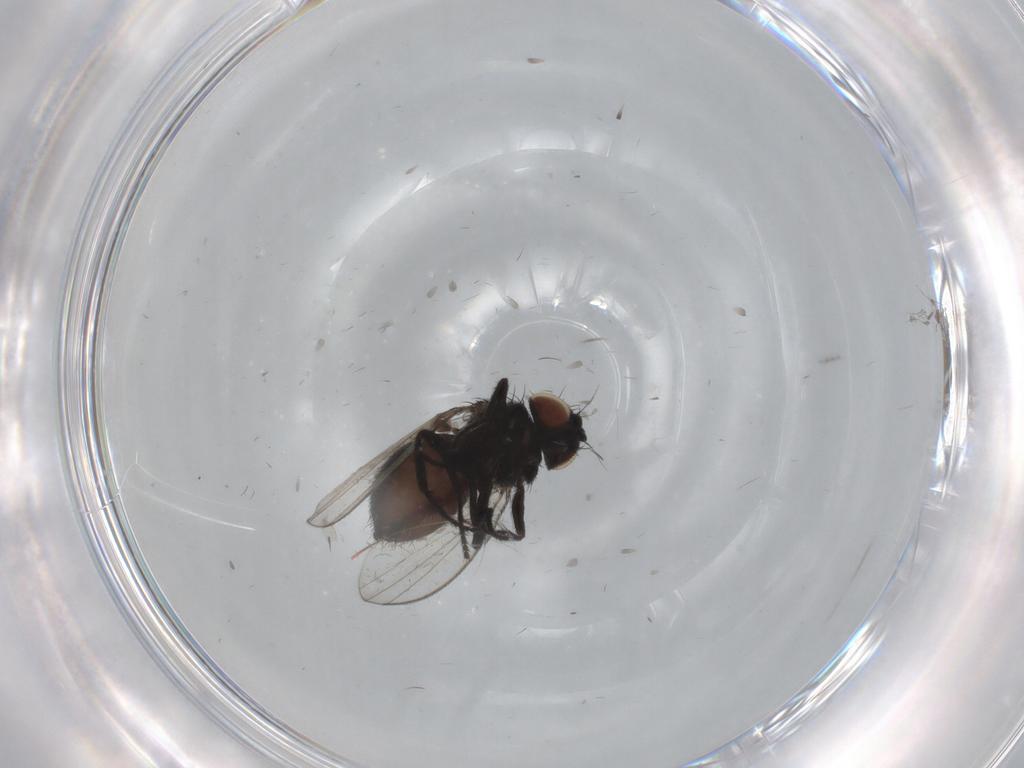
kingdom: Animalia
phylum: Arthropoda
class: Insecta
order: Diptera
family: Milichiidae
